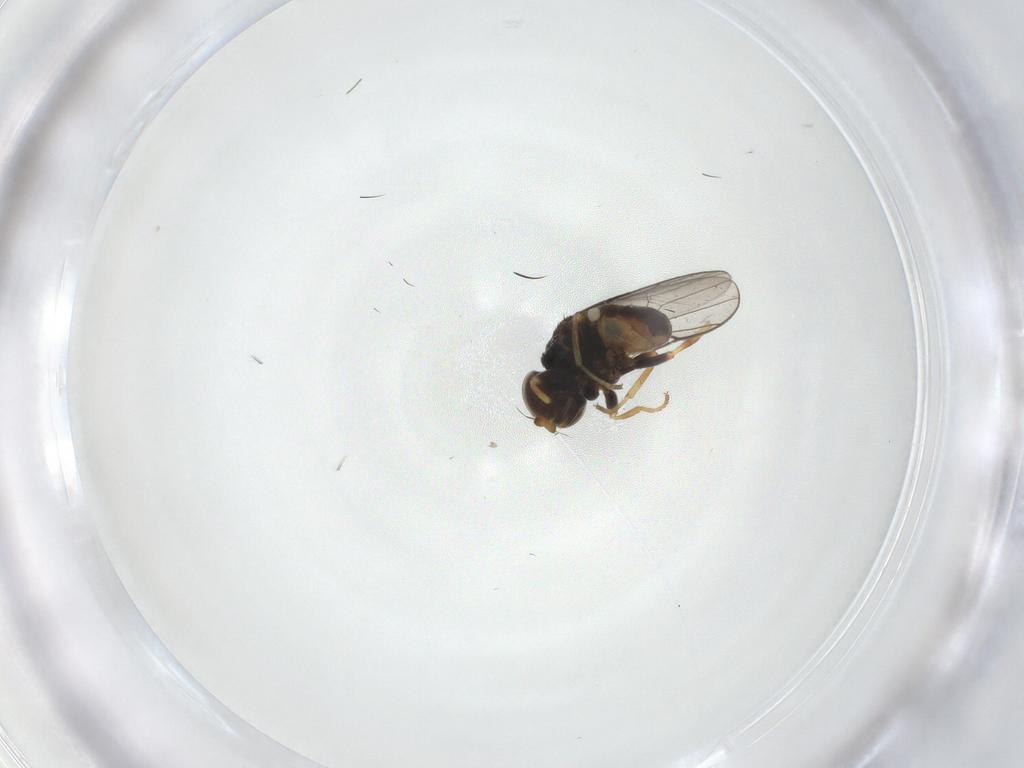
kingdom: Animalia
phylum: Arthropoda
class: Insecta
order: Diptera
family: Chloropidae
